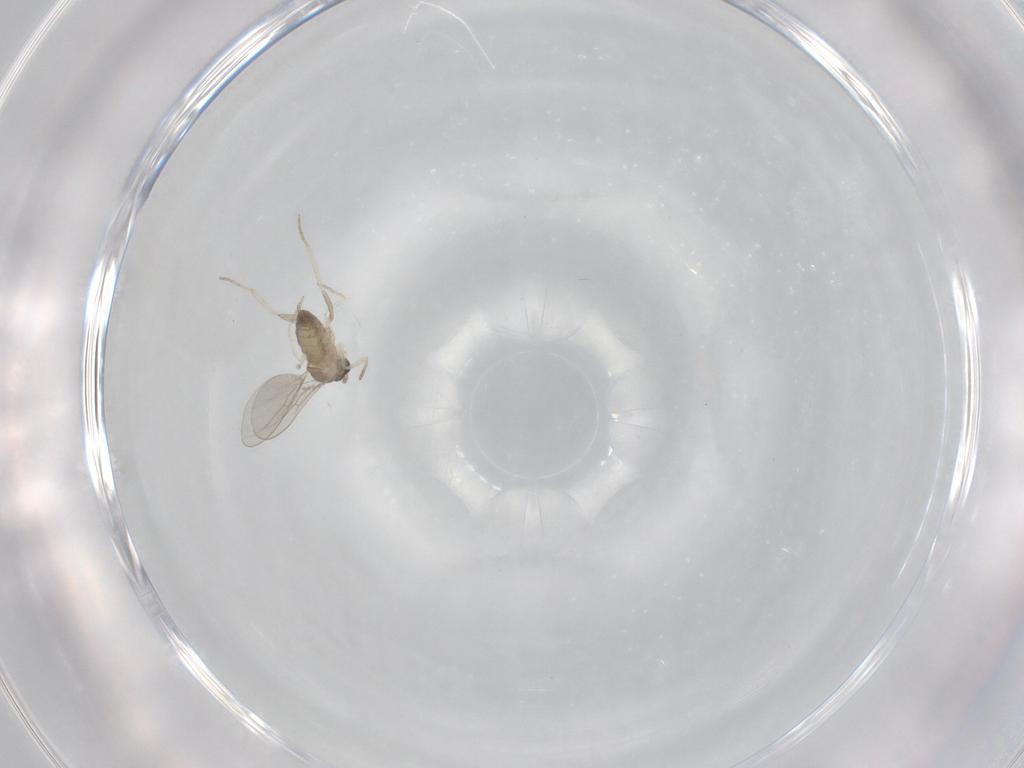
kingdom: Animalia
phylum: Arthropoda
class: Insecta
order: Diptera
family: Cecidomyiidae
